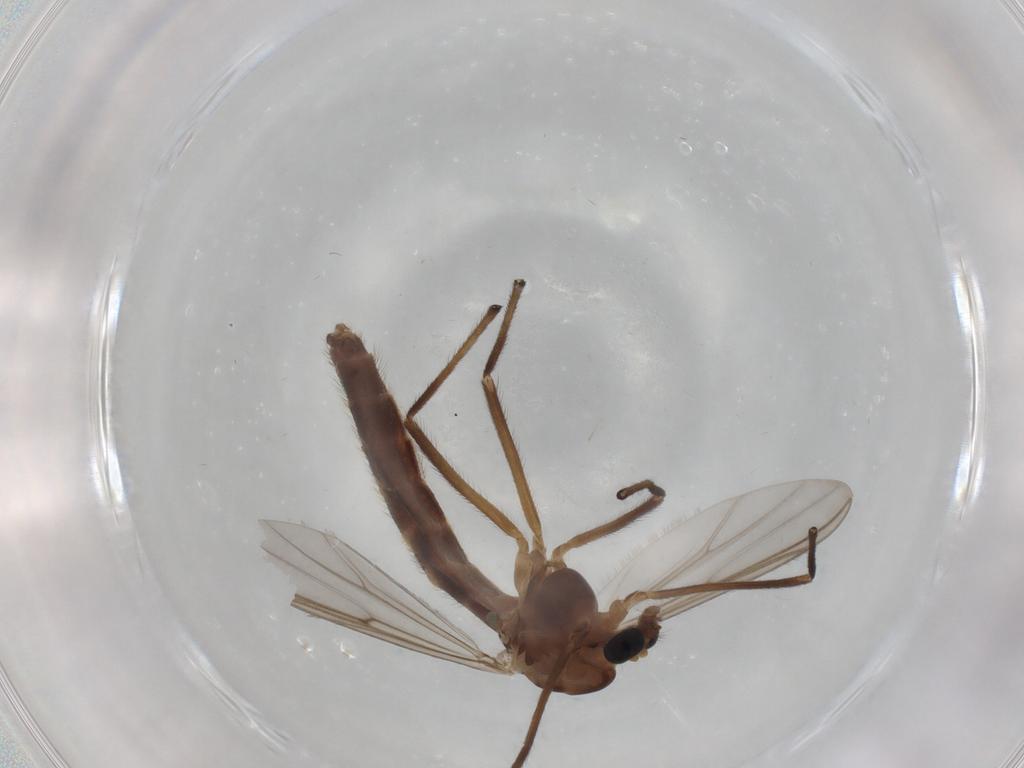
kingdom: Animalia
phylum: Arthropoda
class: Insecta
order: Diptera
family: Chironomidae
